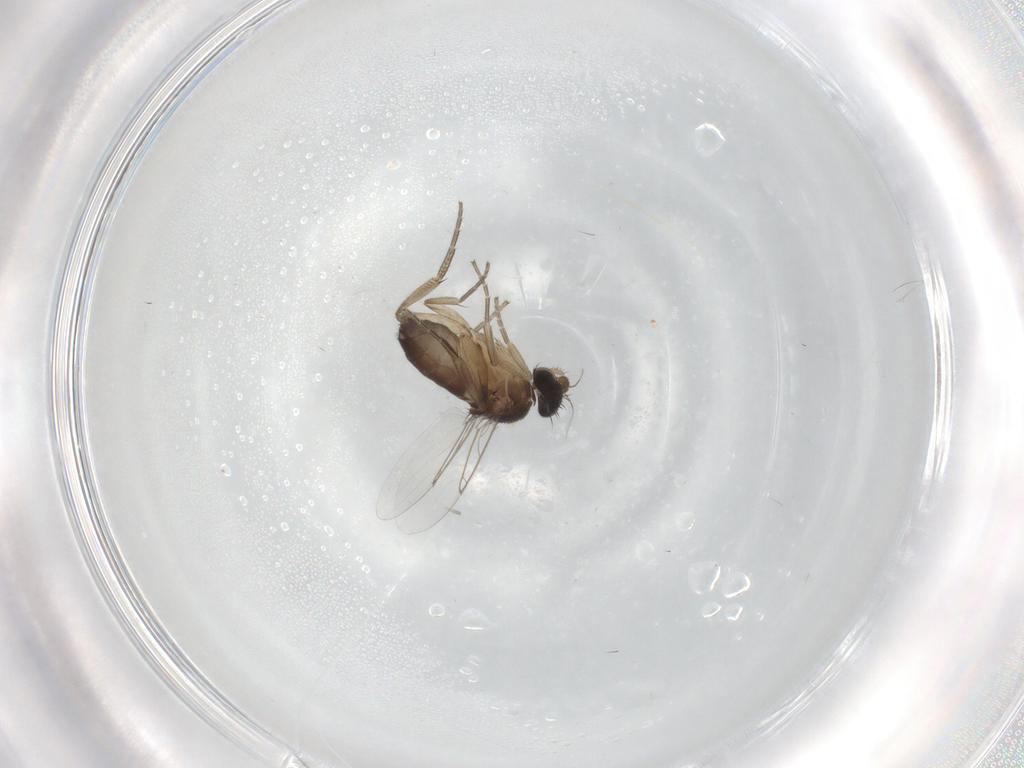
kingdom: Animalia
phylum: Arthropoda
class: Insecta
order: Diptera
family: Phoridae
